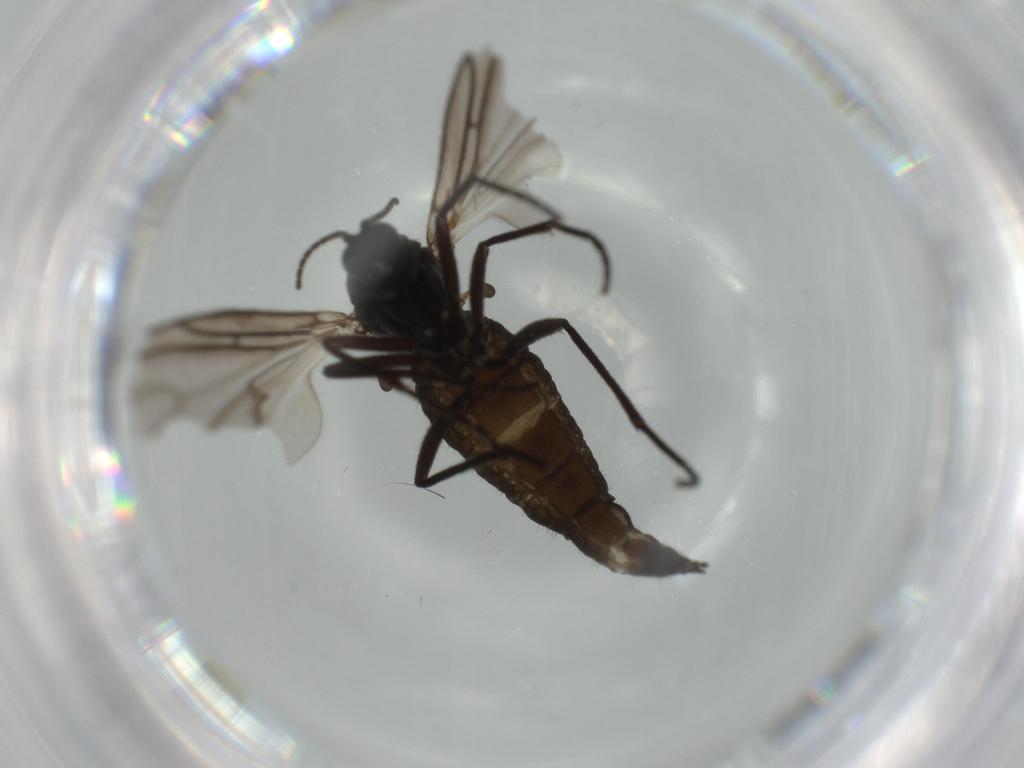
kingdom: Animalia
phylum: Arthropoda
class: Insecta
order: Diptera
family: Sciaridae
